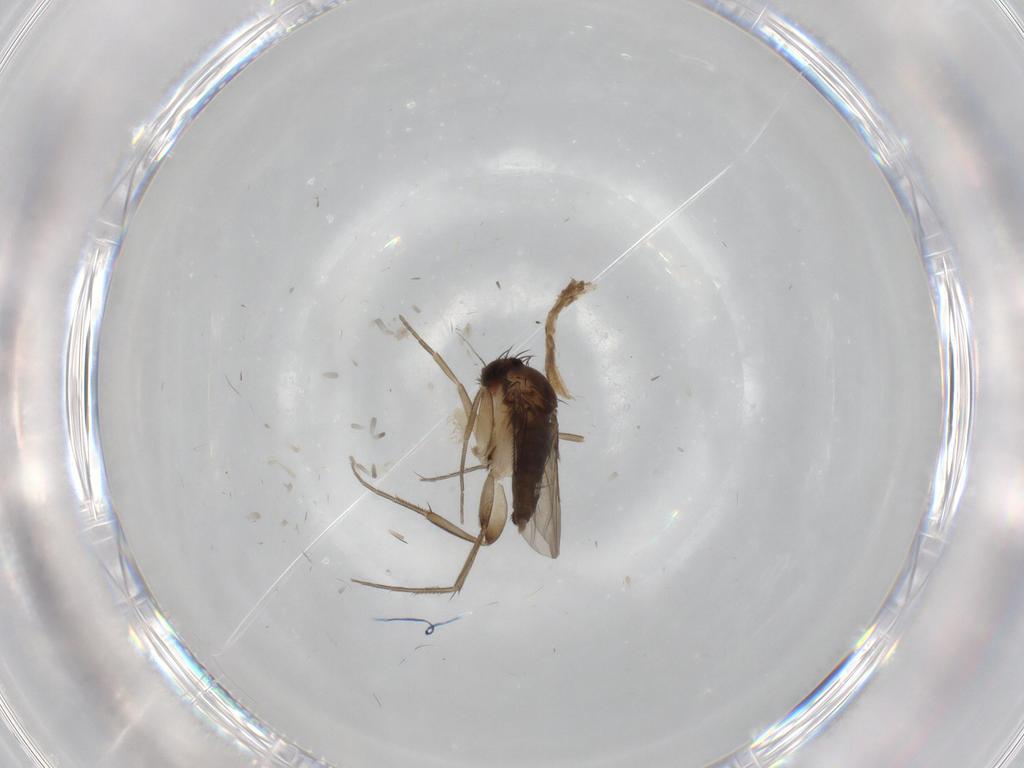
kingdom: Animalia
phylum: Arthropoda
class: Insecta
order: Diptera
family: Phoridae
